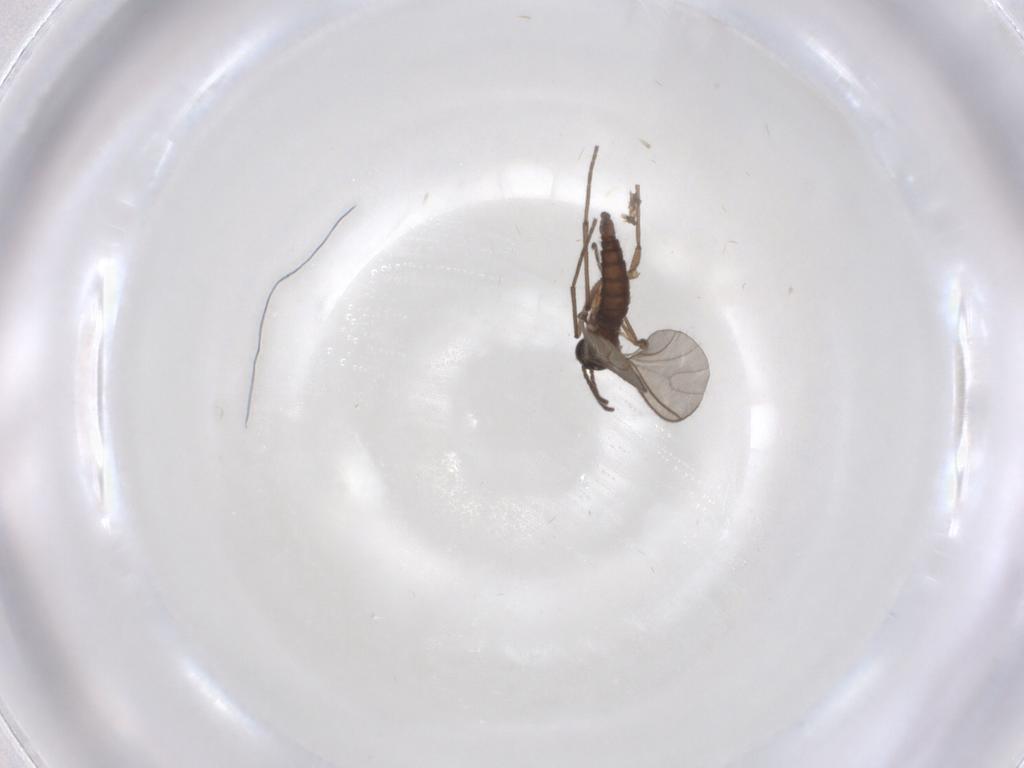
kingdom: Animalia
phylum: Arthropoda
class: Insecta
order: Diptera
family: Sciaridae
